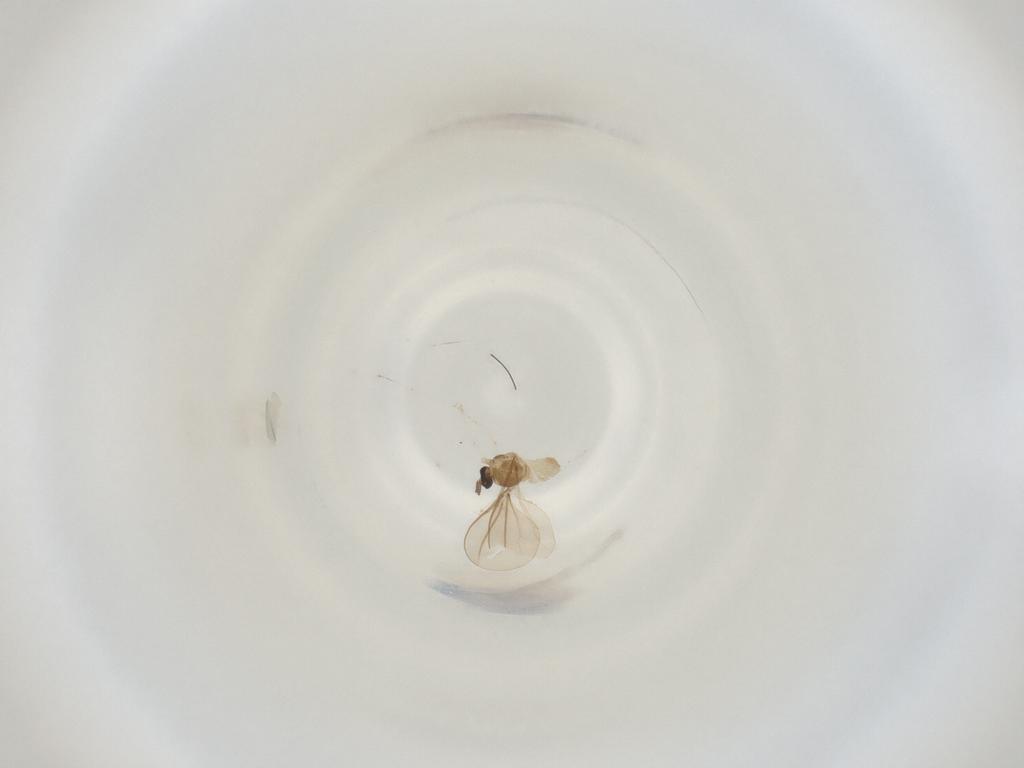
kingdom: Animalia
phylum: Arthropoda
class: Insecta
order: Diptera
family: Cecidomyiidae
